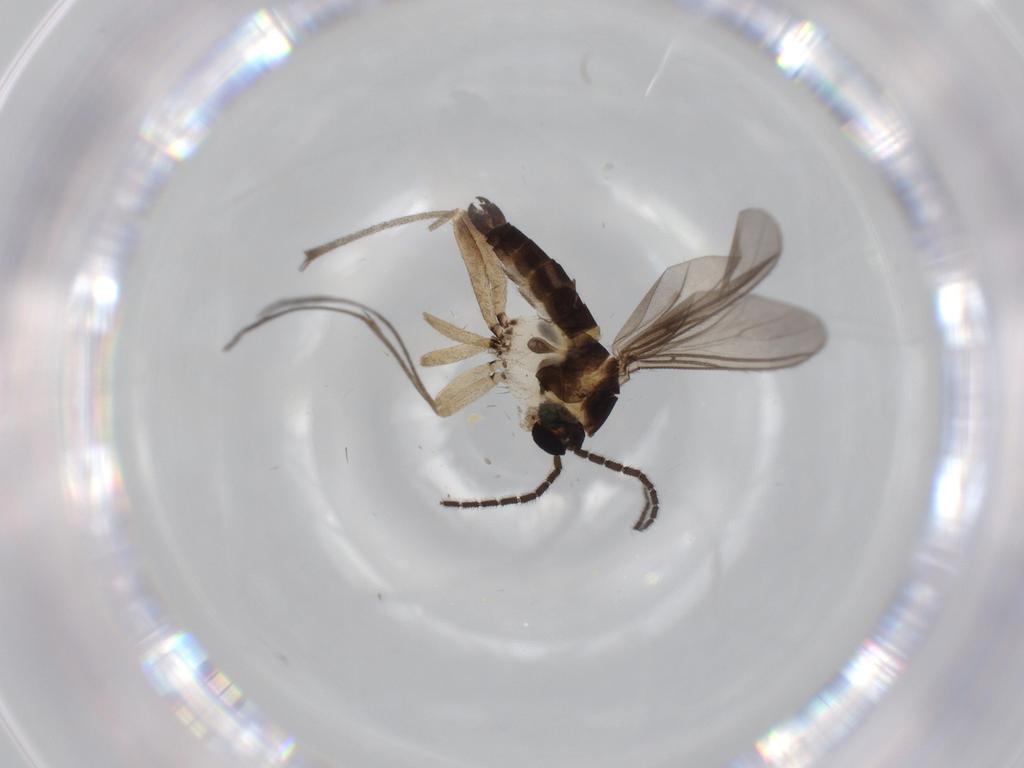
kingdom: Animalia
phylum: Arthropoda
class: Insecta
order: Diptera
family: Sciaridae
